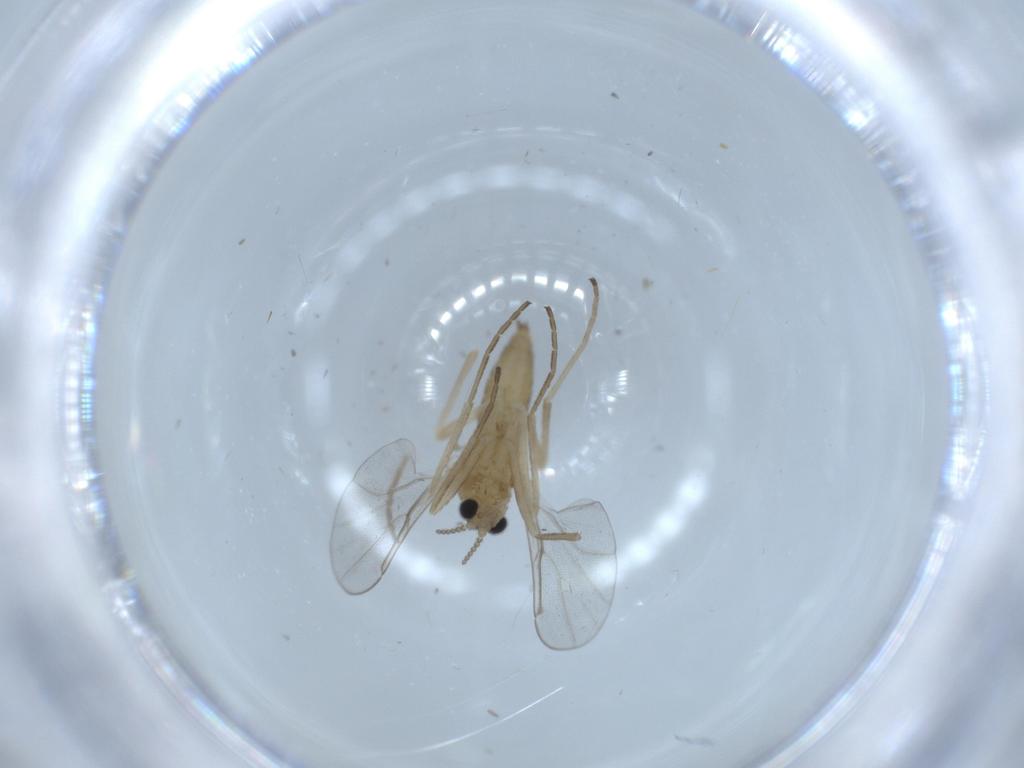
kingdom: Animalia
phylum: Arthropoda
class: Insecta
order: Diptera
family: Cecidomyiidae
